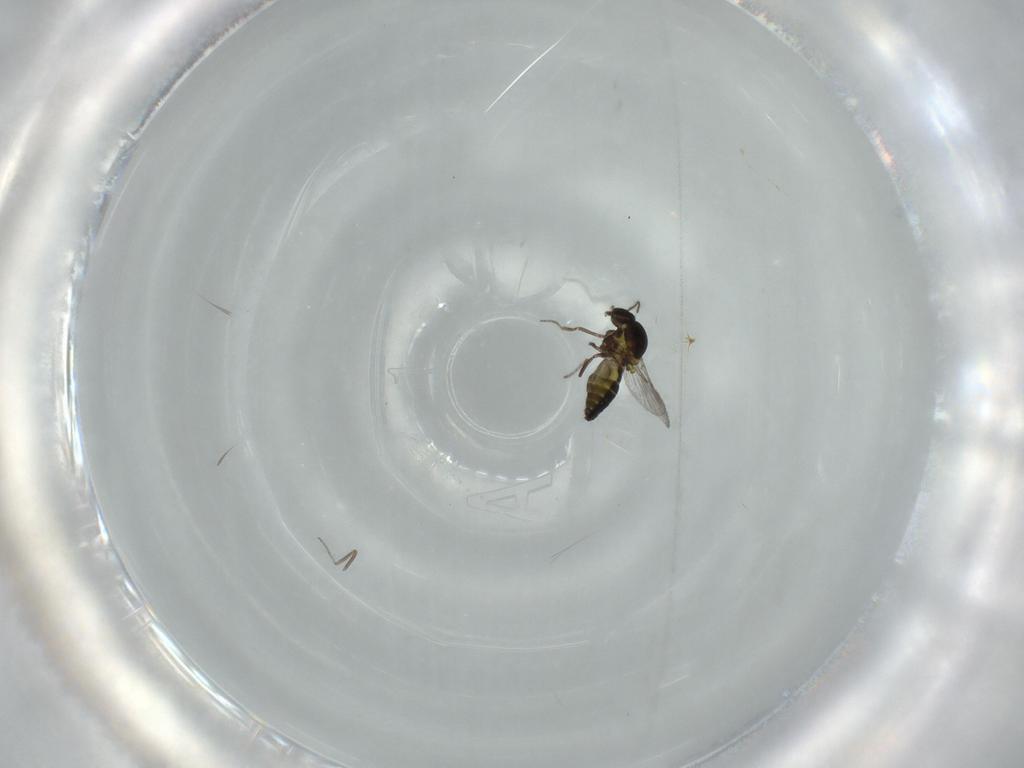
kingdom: Animalia
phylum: Arthropoda
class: Insecta
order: Diptera
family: Ceratopogonidae
